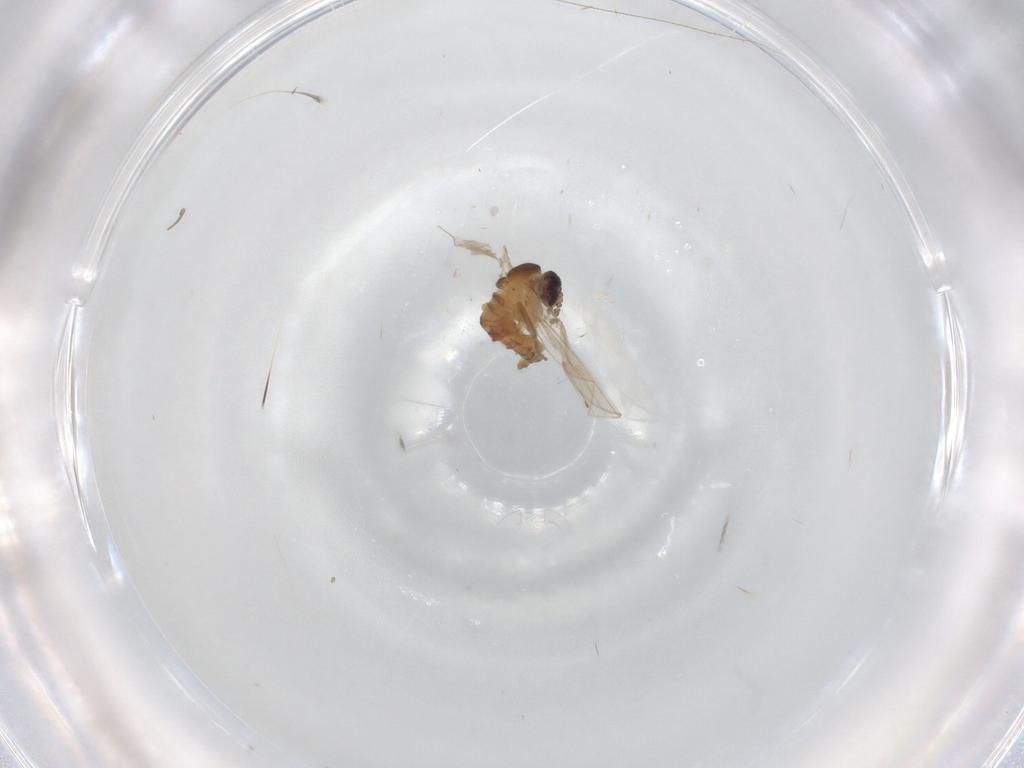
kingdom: Animalia
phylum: Arthropoda
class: Insecta
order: Diptera
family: Psychodidae
